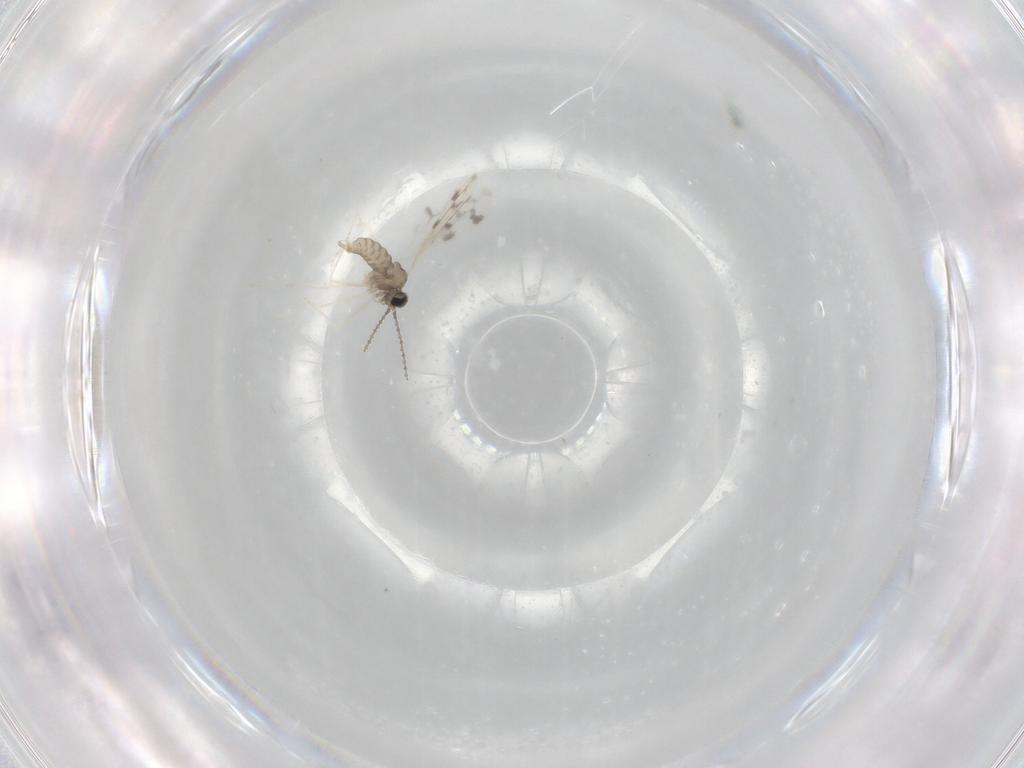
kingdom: Animalia
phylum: Arthropoda
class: Insecta
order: Diptera
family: Cecidomyiidae
